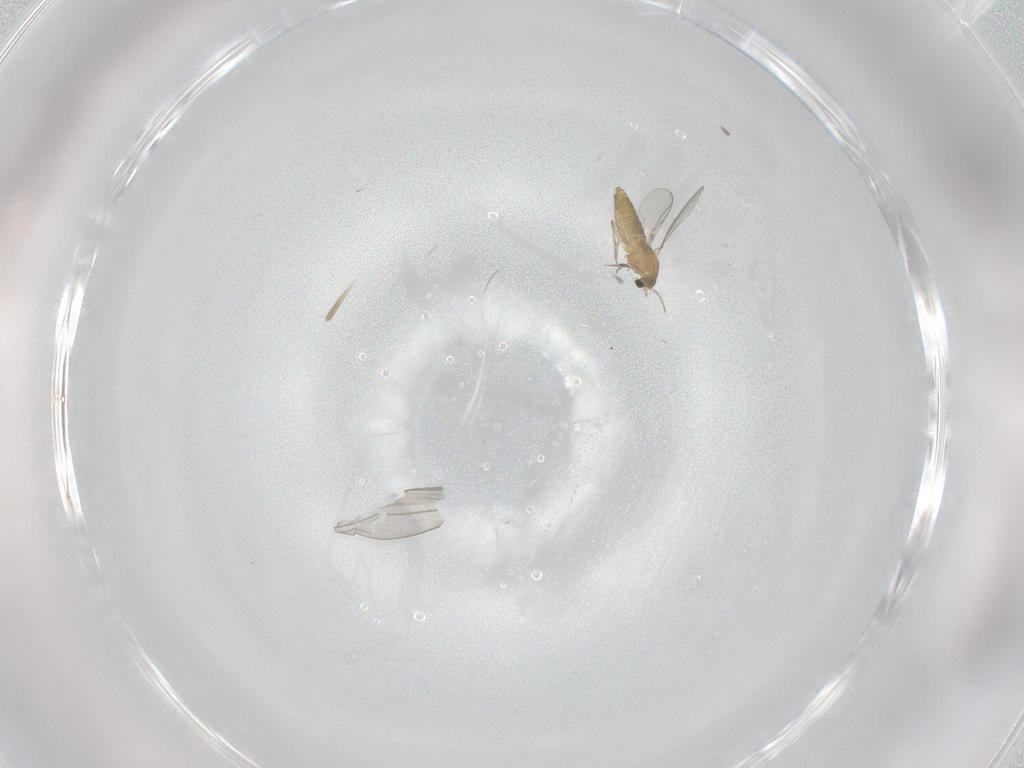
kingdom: Animalia
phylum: Arthropoda
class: Insecta
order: Diptera
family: Chironomidae
